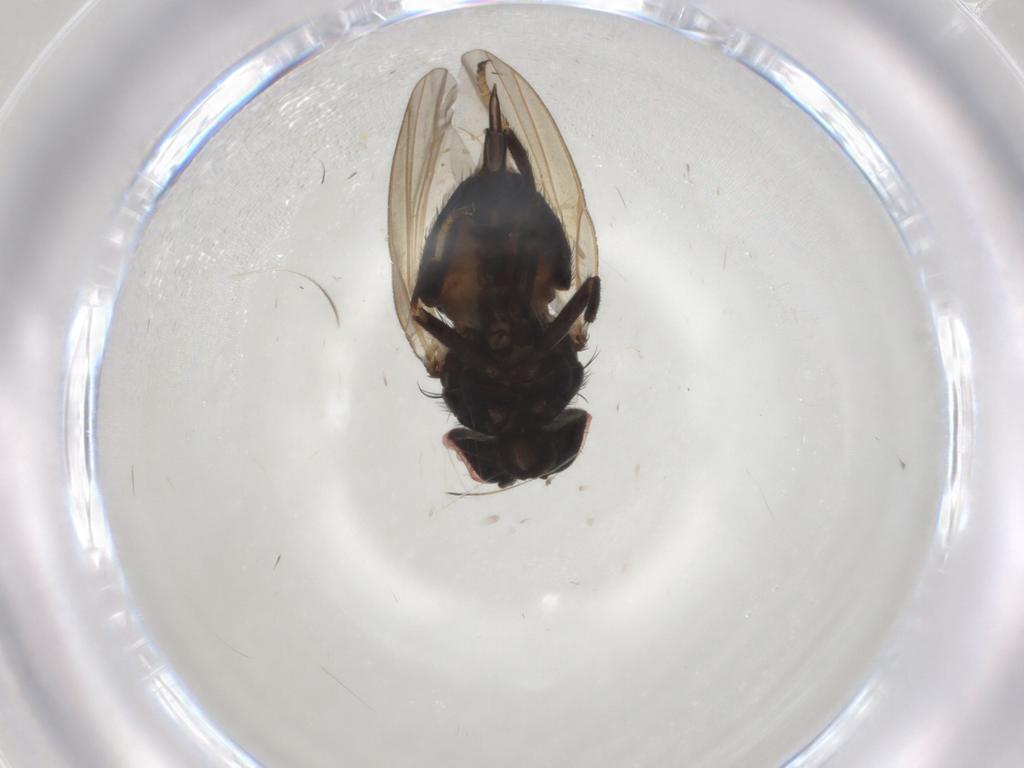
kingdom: Animalia
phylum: Arthropoda
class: Insecta
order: Diptera
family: Lonchaeidae
